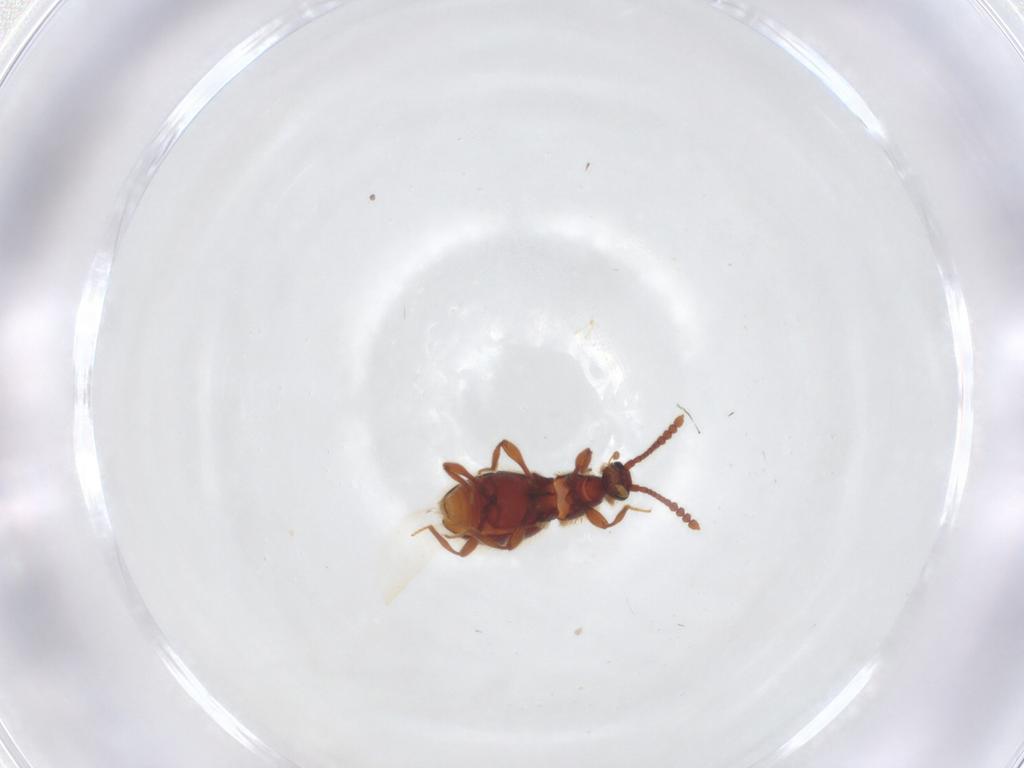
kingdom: Animalia
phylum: Arthropoda
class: Insecta
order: Coleoptera
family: Staphylinidae
